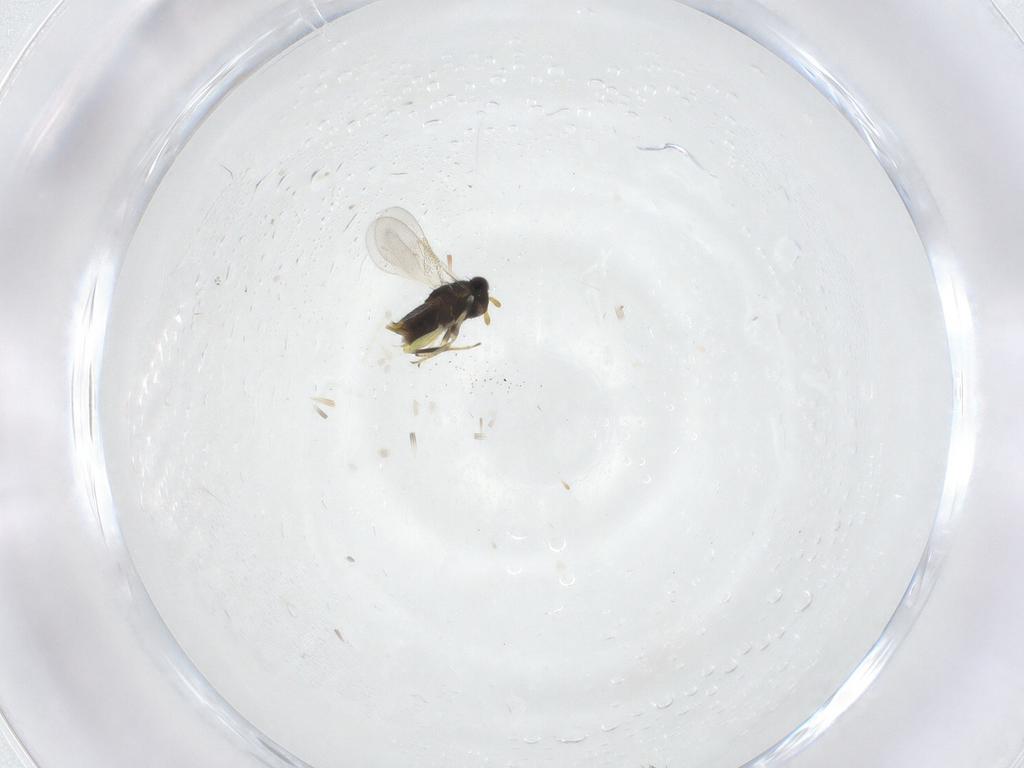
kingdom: Animalia
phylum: Arthropoda
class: Insecta
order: Hymenoptera
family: Aphelinidae
